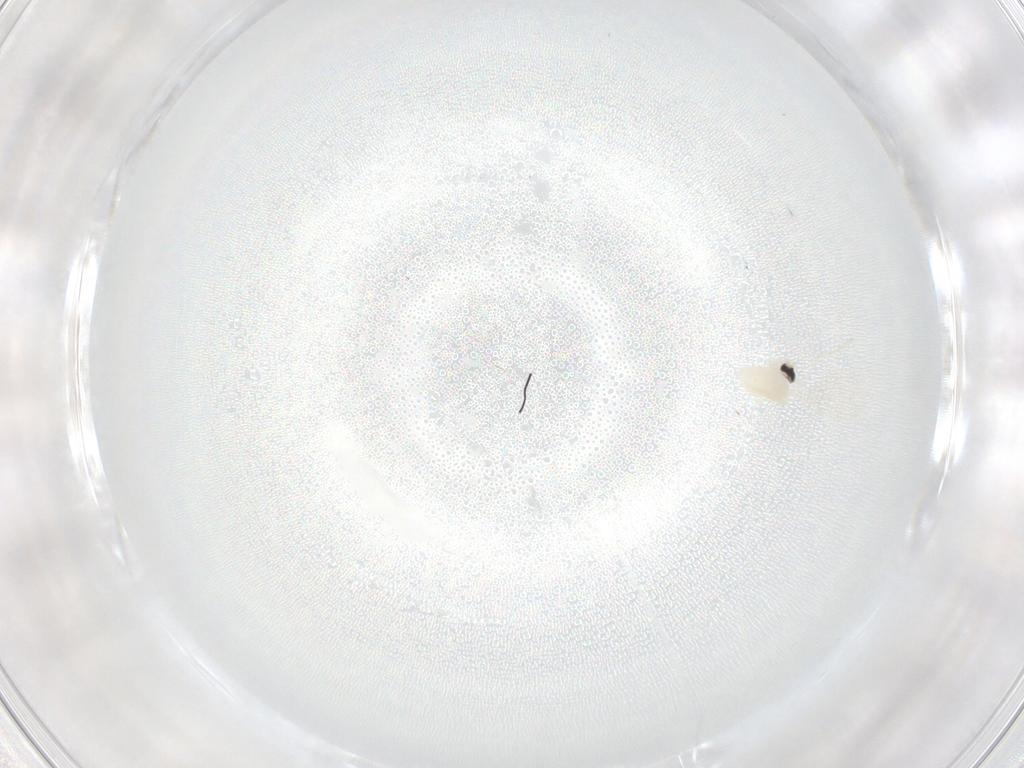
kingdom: Animalia
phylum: Arthropoda
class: Insecta
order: Diptera
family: Cecidomyiidae
